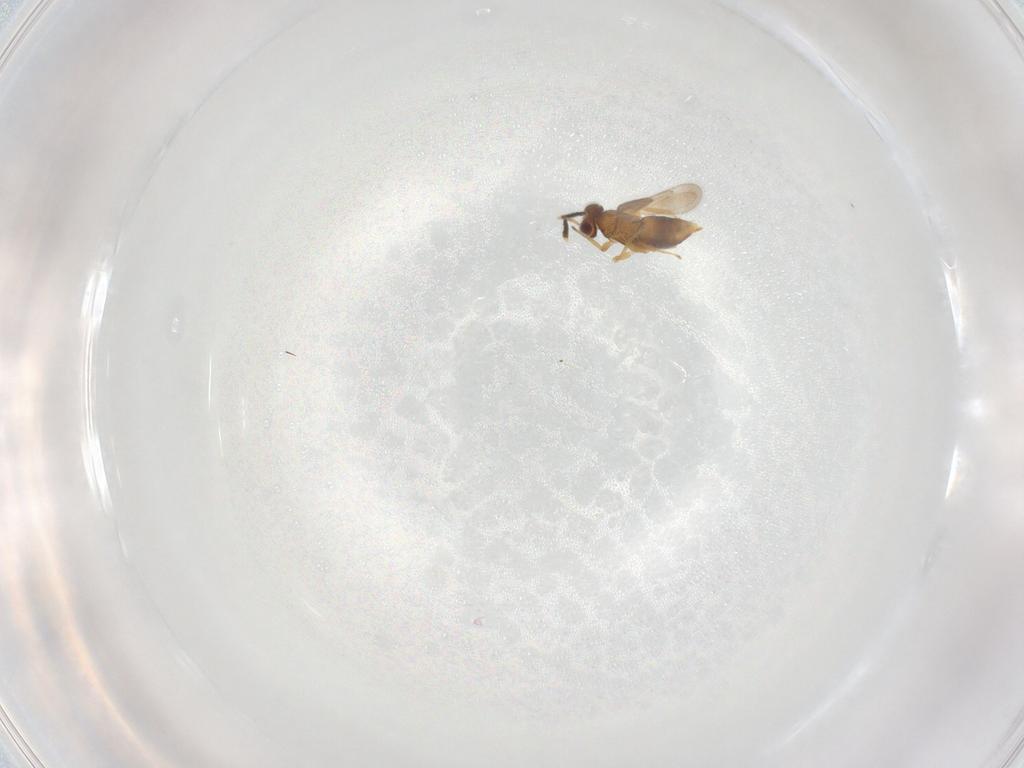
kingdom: Animalia
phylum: Arthropoda
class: Insecta
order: Hymenoptera
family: Aphelinidae
